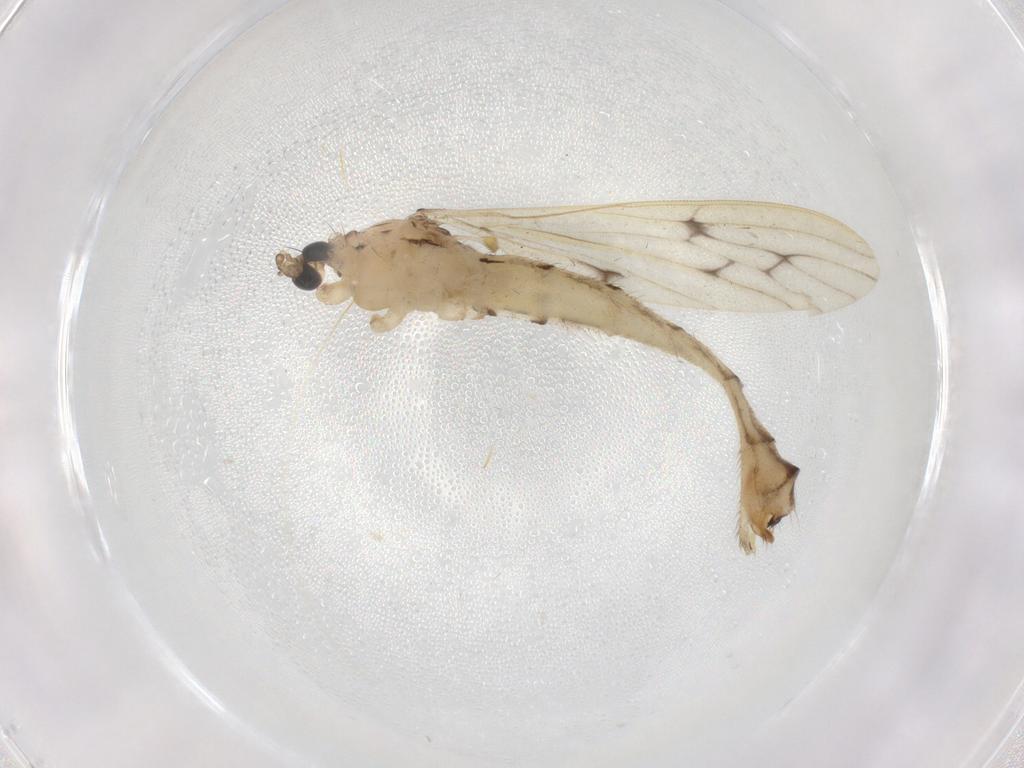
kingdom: Animalia
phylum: Arthropoda
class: Insecta
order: Diptera
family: Limoniidae
